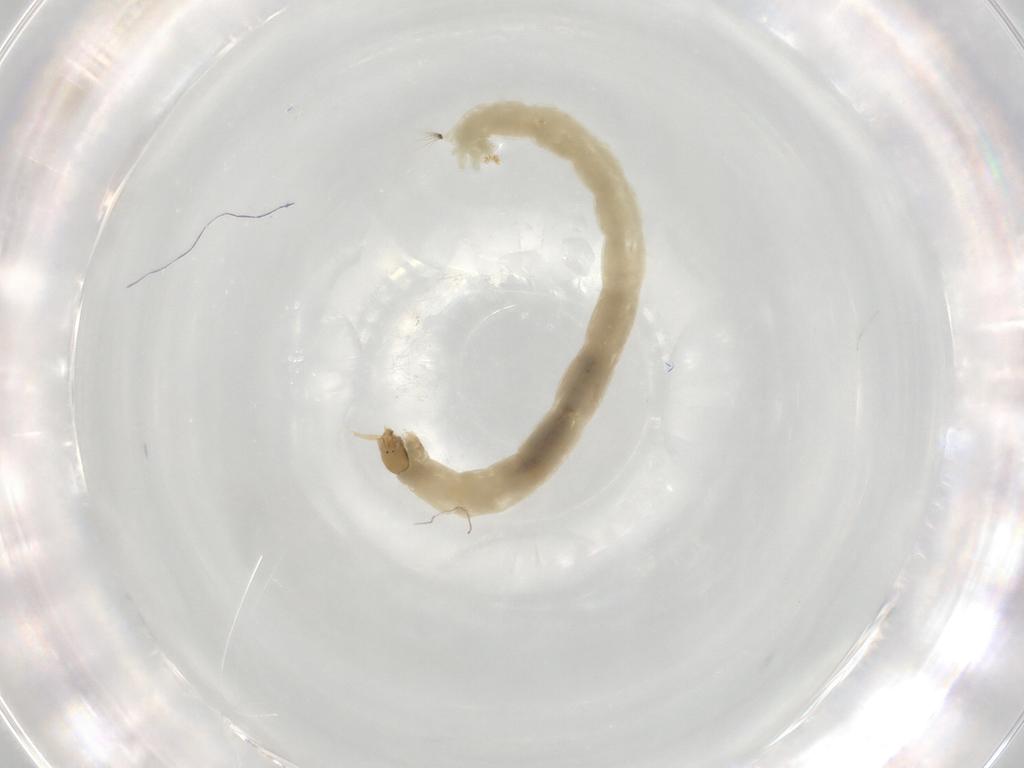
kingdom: Animalia
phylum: Arthropoda
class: Insecta
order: Diptera
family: Chironomidae
